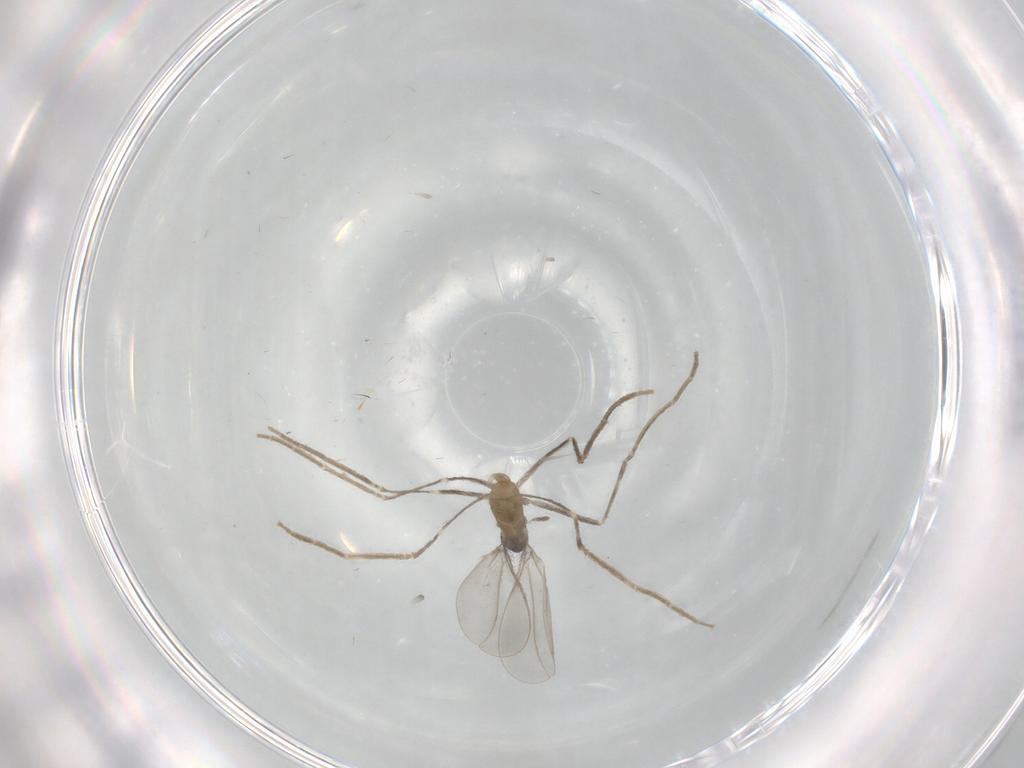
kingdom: Animalia
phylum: Arthropoda
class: Insecta
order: Diptera
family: Cecidomyiidae
